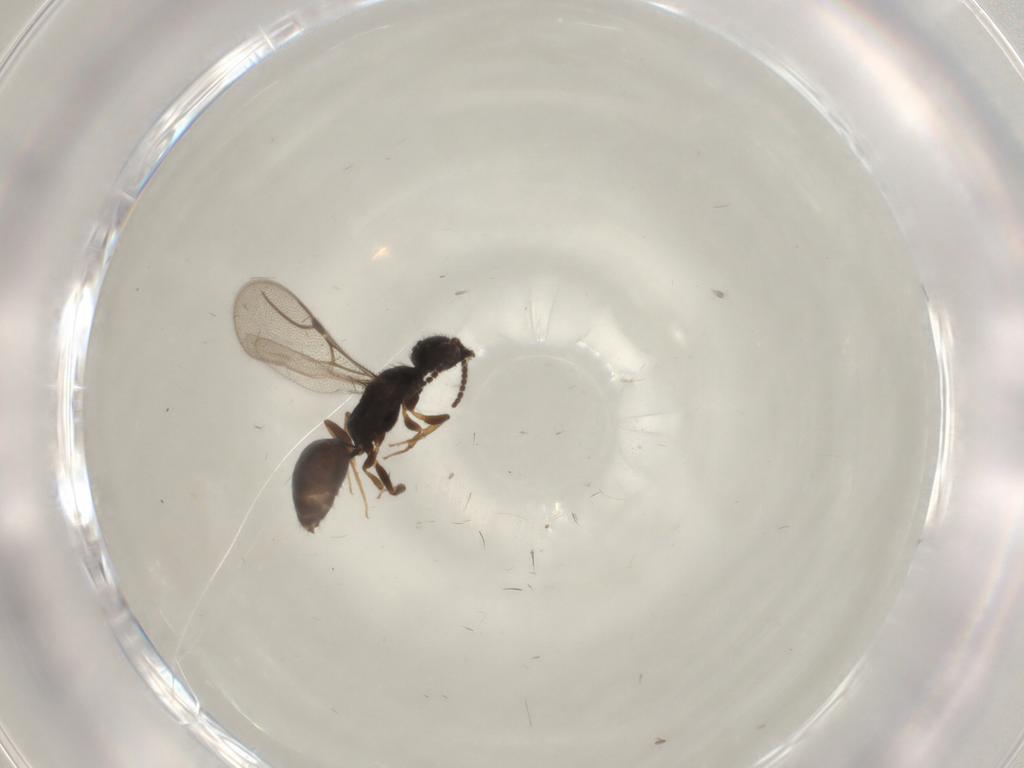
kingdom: Animalia
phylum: Arthropoda
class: Insecta
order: Hymenoptera
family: Bethylidae
